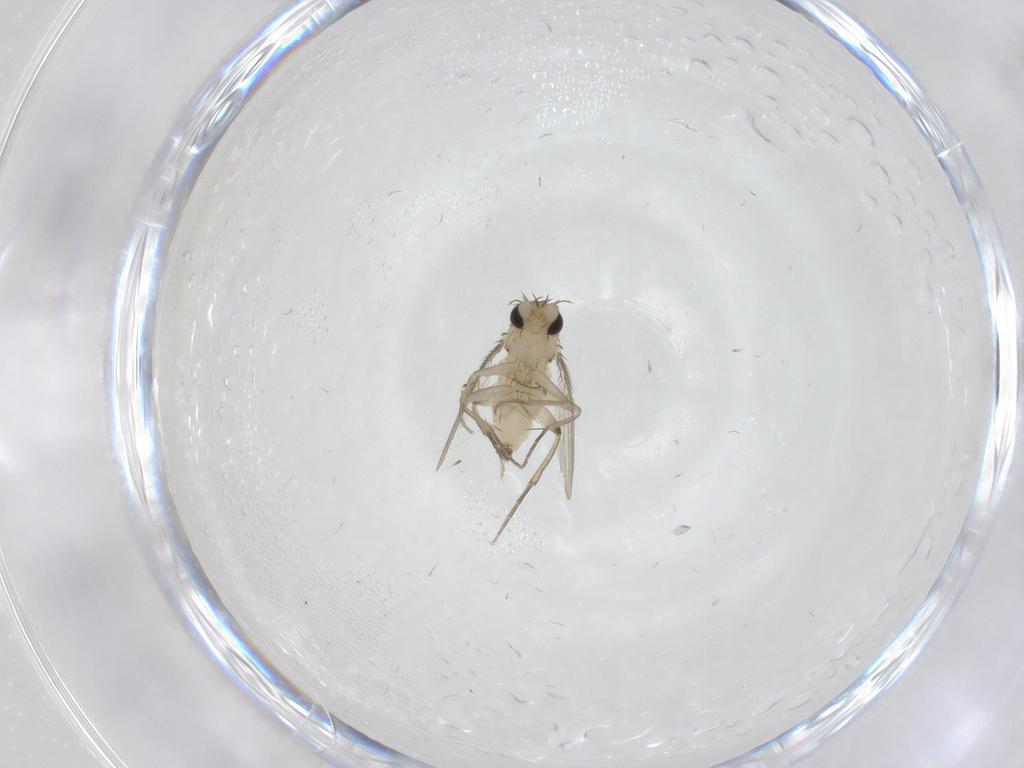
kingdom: Animalia
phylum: Arthropoda
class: Insecta
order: Diptera
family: Phoridae
